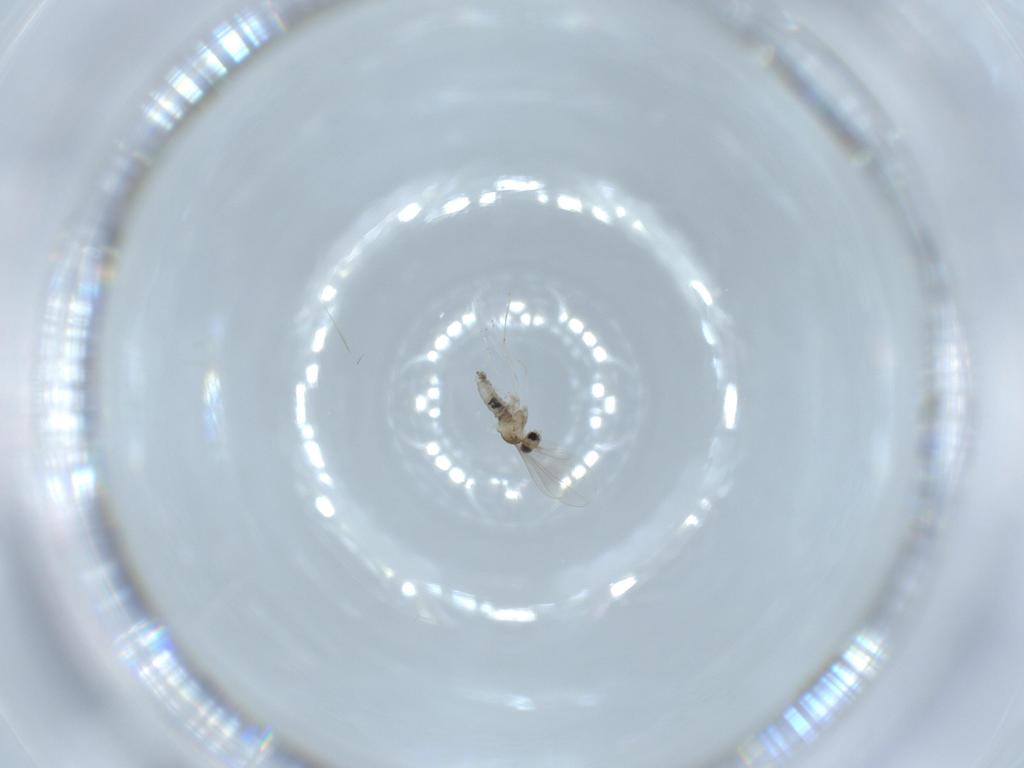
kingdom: Animalia
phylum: Arthropoda
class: Insecta
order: Diptera
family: Cecidomyiidae
